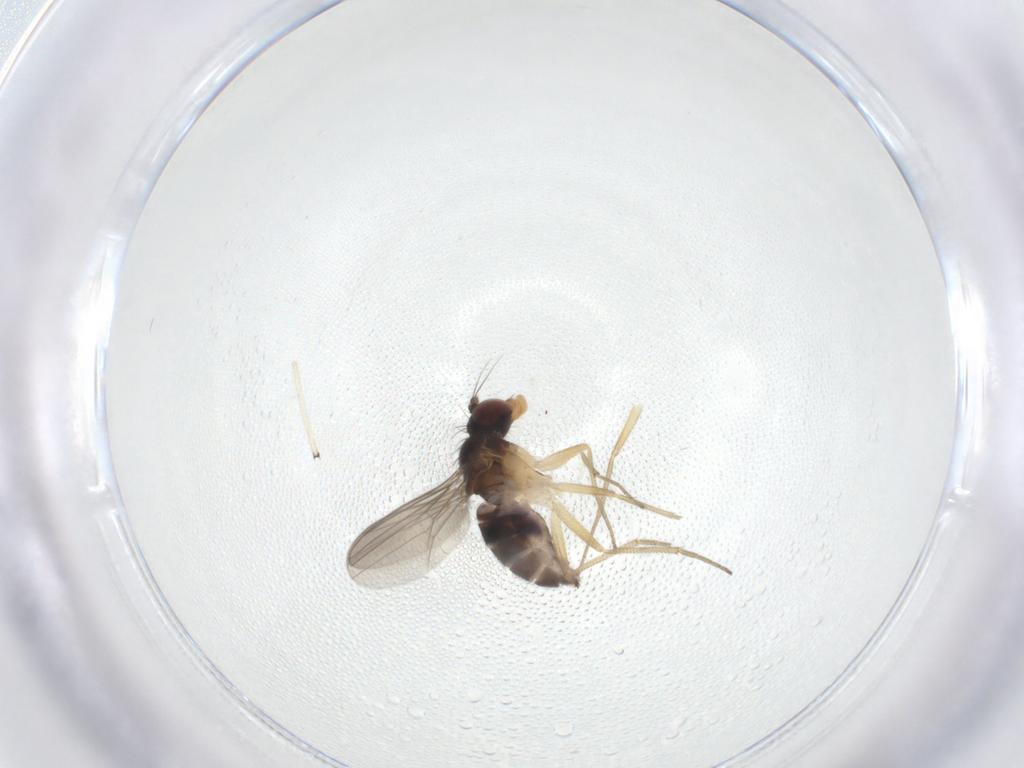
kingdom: Animalia
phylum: Arthropoda
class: Insecta
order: Diptera
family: Dolichopodidae
